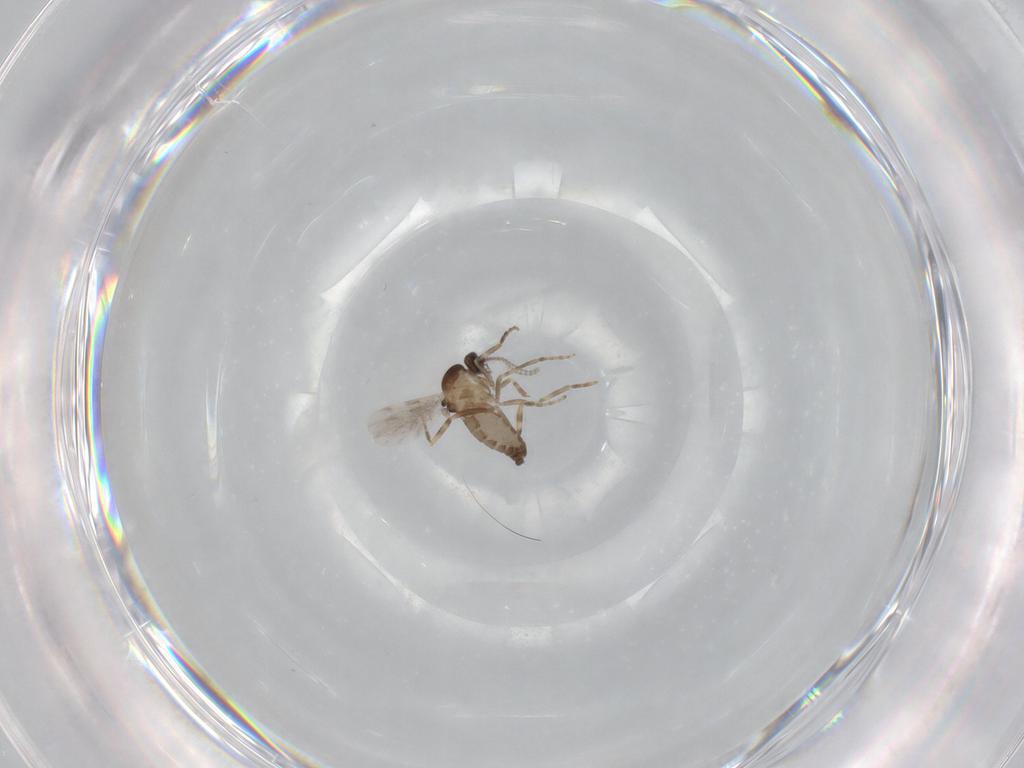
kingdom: Animalia
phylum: Arthropoda
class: Insecta
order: Diptera
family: Ceratopogonidae
